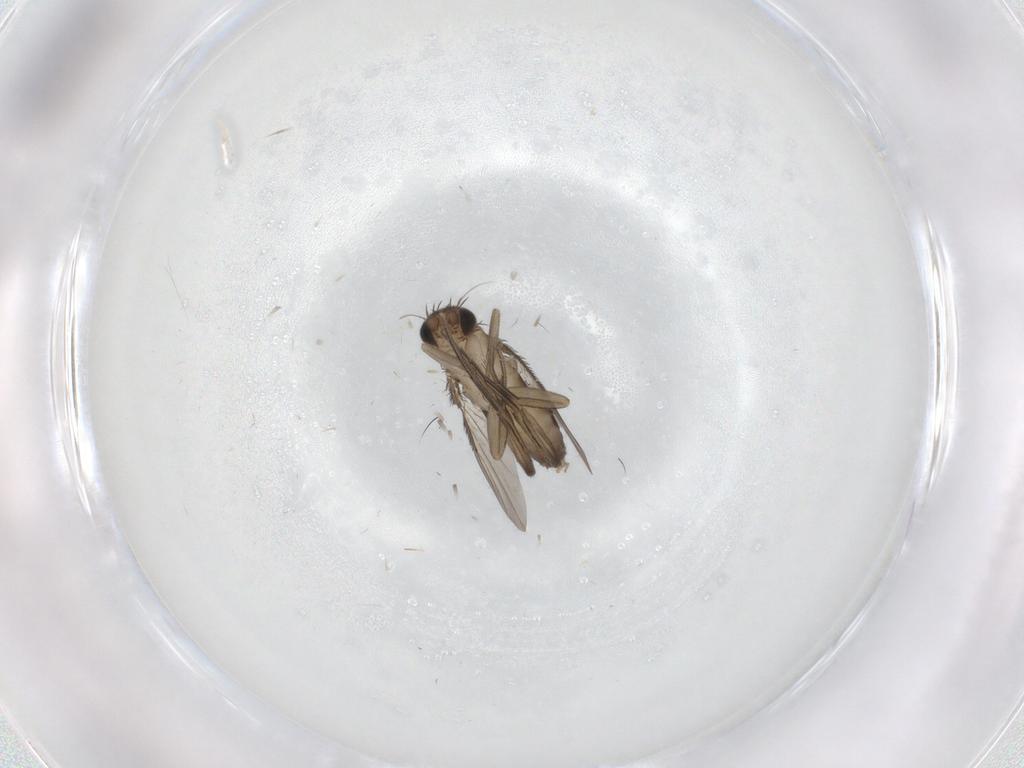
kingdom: Animalia
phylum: Arthropoda
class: Insecta
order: Diptera
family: Phoridae
